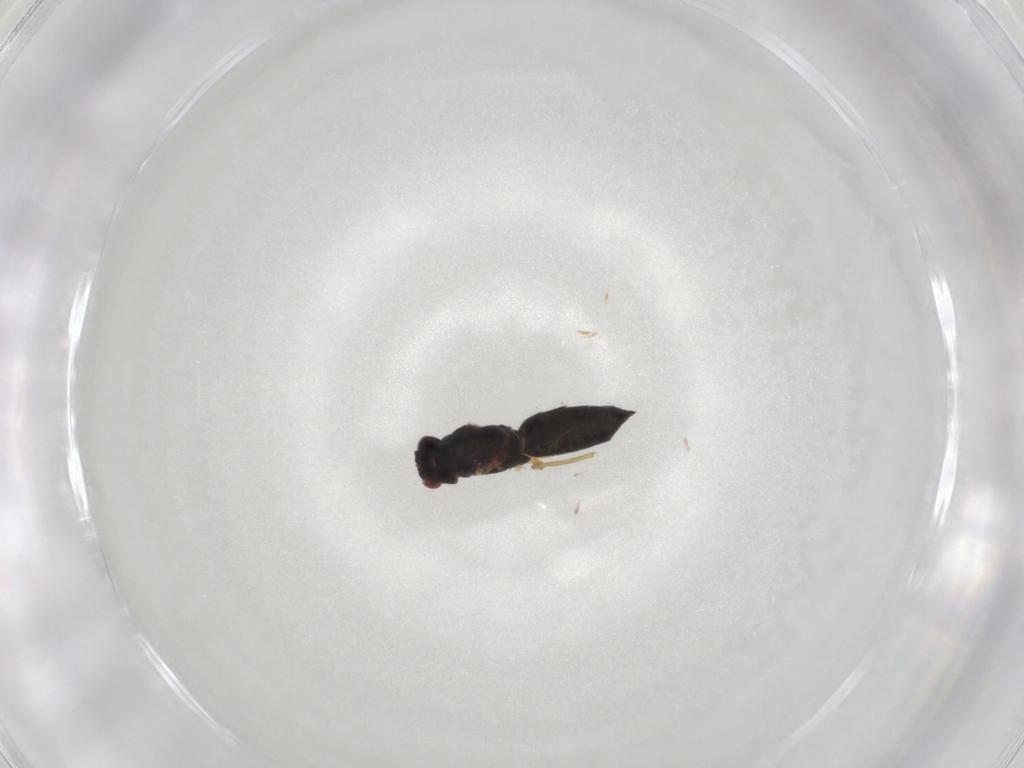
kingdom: Animalia
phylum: Arthropoda
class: Insecta
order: Hymenoptera
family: Eulophidae
